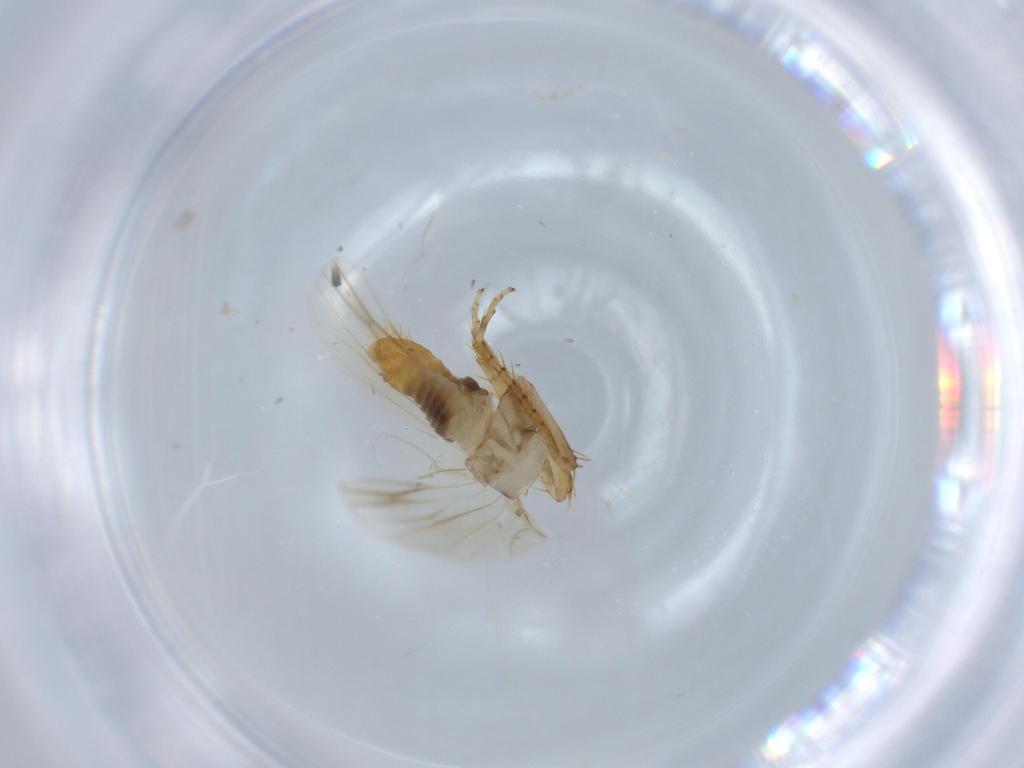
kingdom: Animalia
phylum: Arthropoda
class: Insecta
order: Hemiptera
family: Cicadellidae
